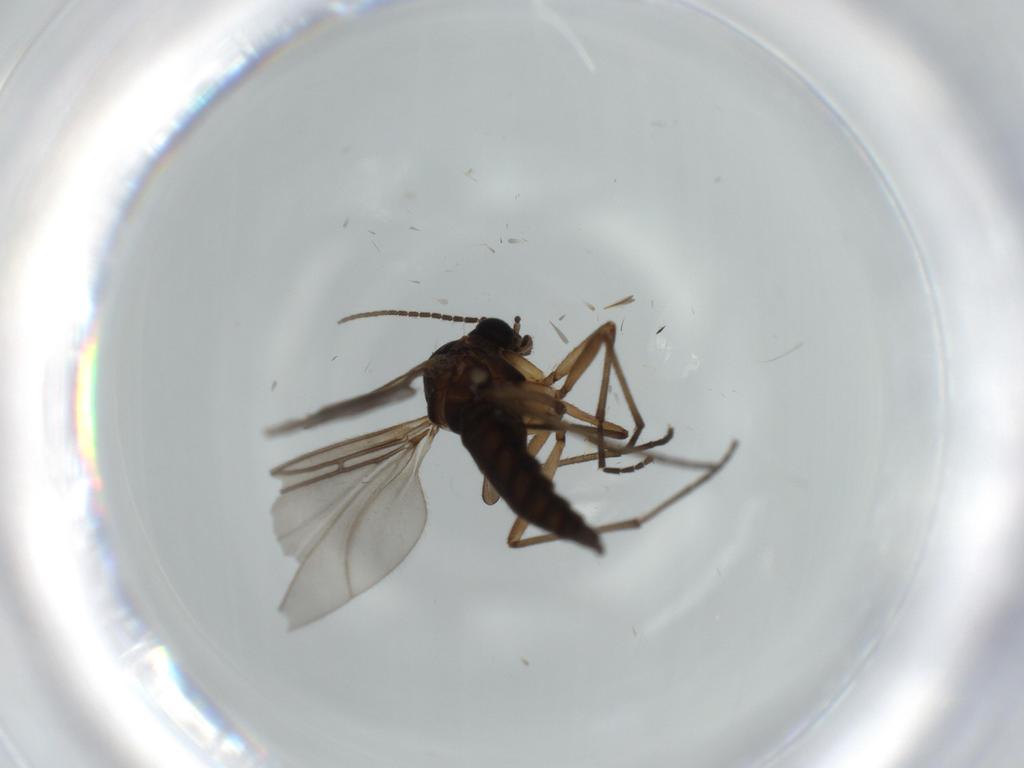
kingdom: Animalia
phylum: Arthropoda
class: Insecta
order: Diptera
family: Sciaridae
